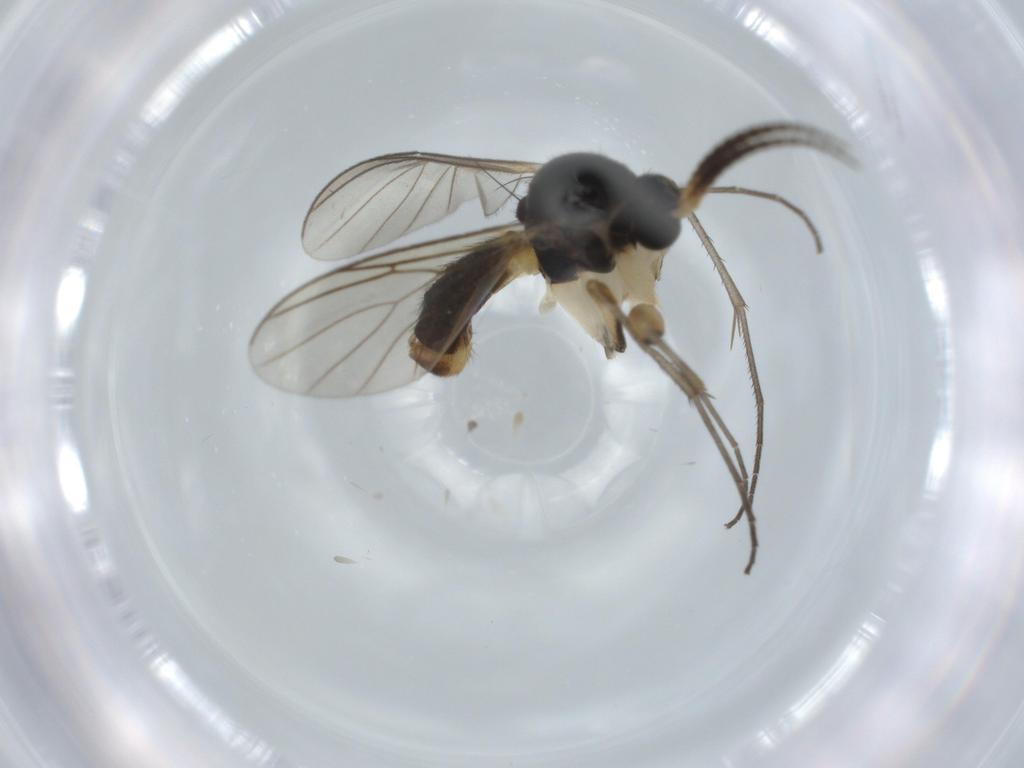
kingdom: Animalia
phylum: Arthropoda
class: Insecta
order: Diptera
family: Cecidomyiidae
